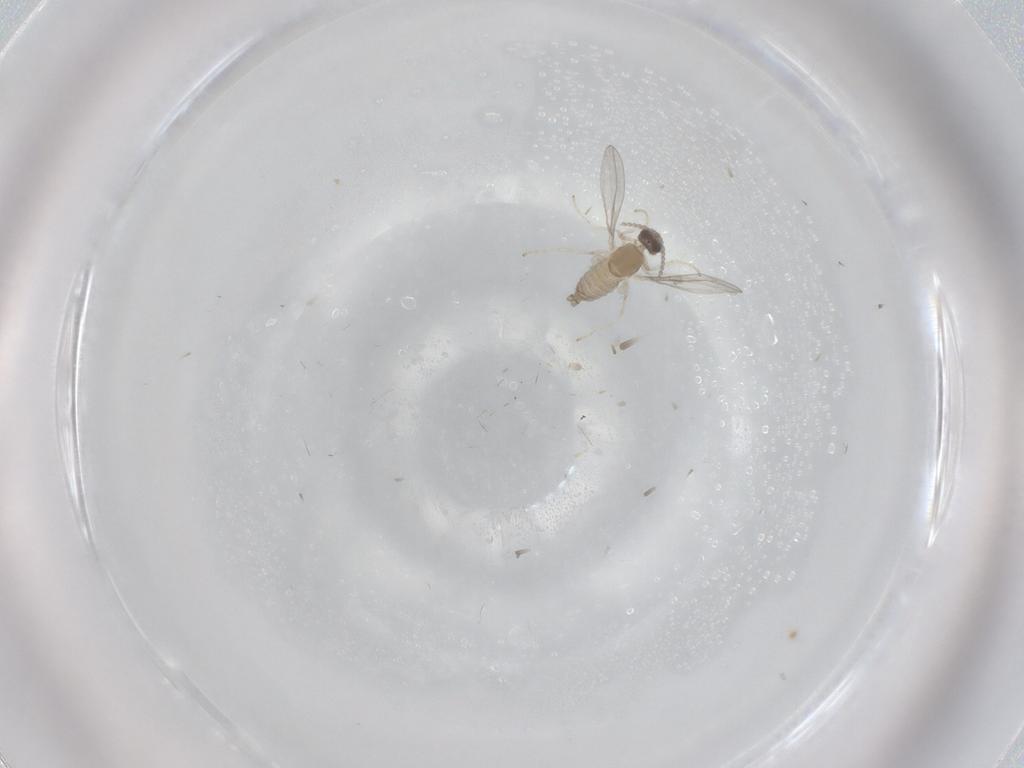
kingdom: Animalia
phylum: Arthropoda
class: Insecta
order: Diptera
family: Cecidomyiidae
